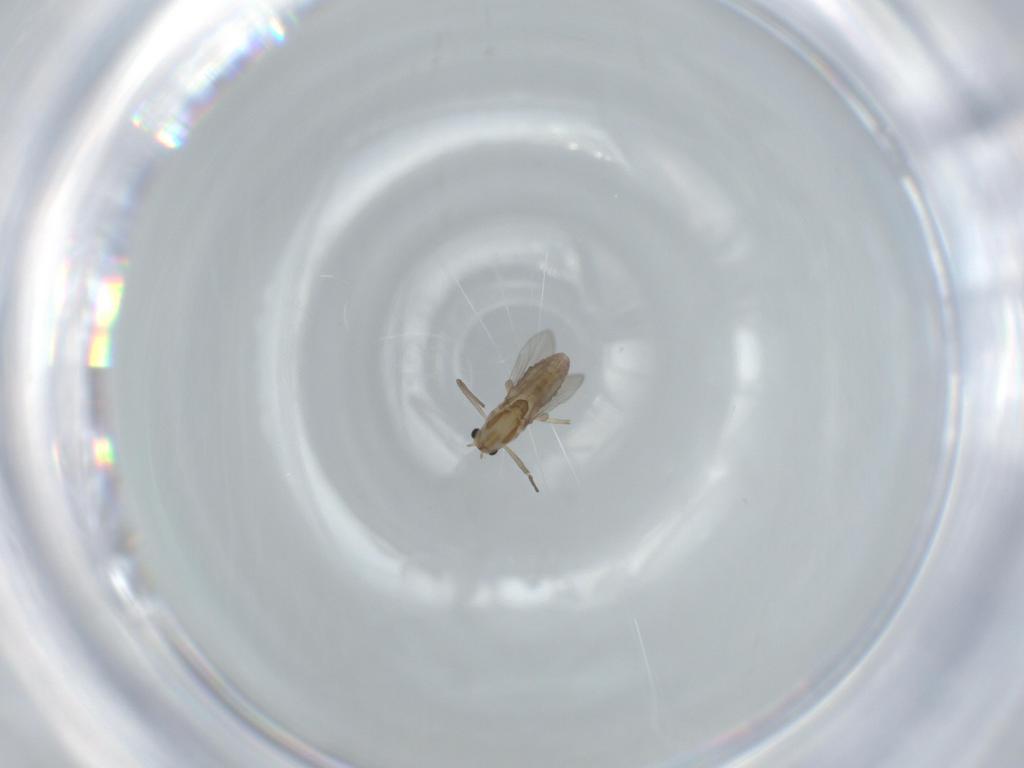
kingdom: Animalia
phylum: Arthropoda
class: Insecta
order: Diptera
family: Chironomidae
